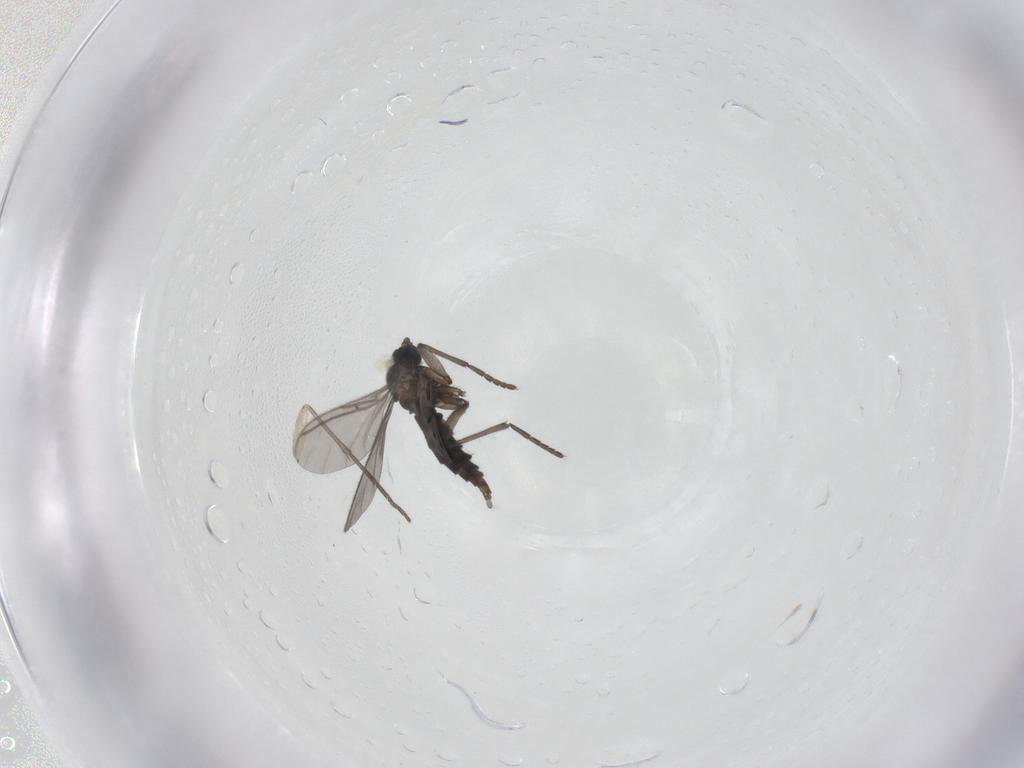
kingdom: Animalia
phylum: Arthropoda
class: Insecta
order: Diptera
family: Sciaridae
